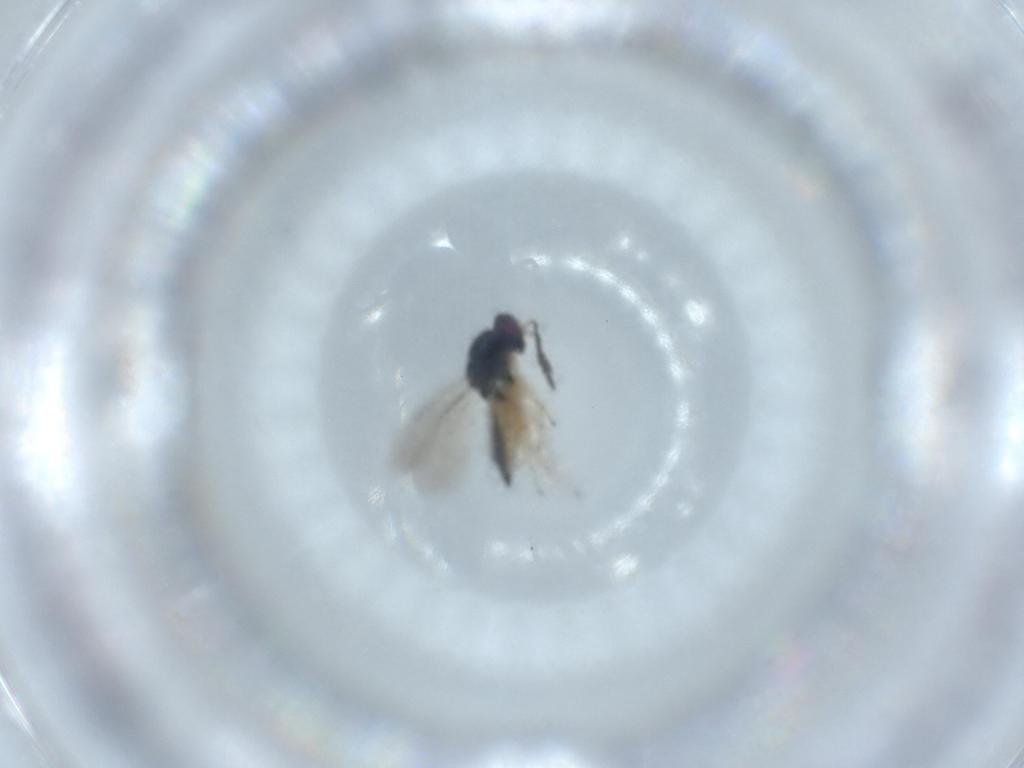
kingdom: Animalia
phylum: Arthropoda
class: Insecta
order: Hymenoptera
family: Eulophidae
